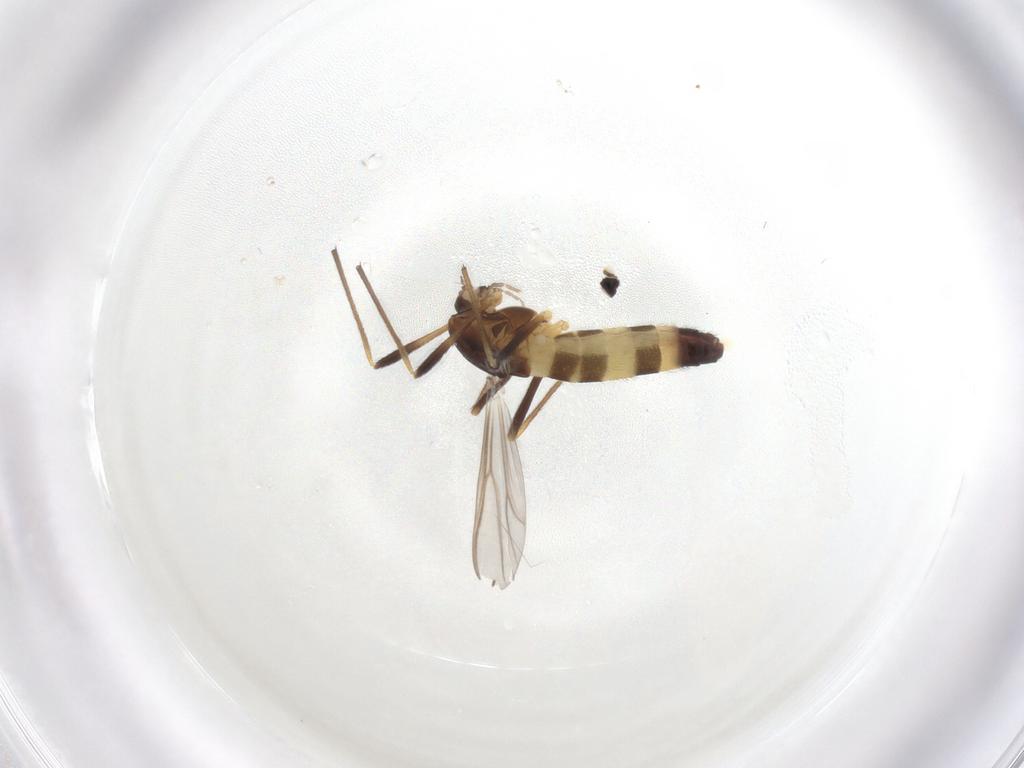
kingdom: Animalia
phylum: Arthropoda
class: Insecta
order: Diptera
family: Chironomidae
